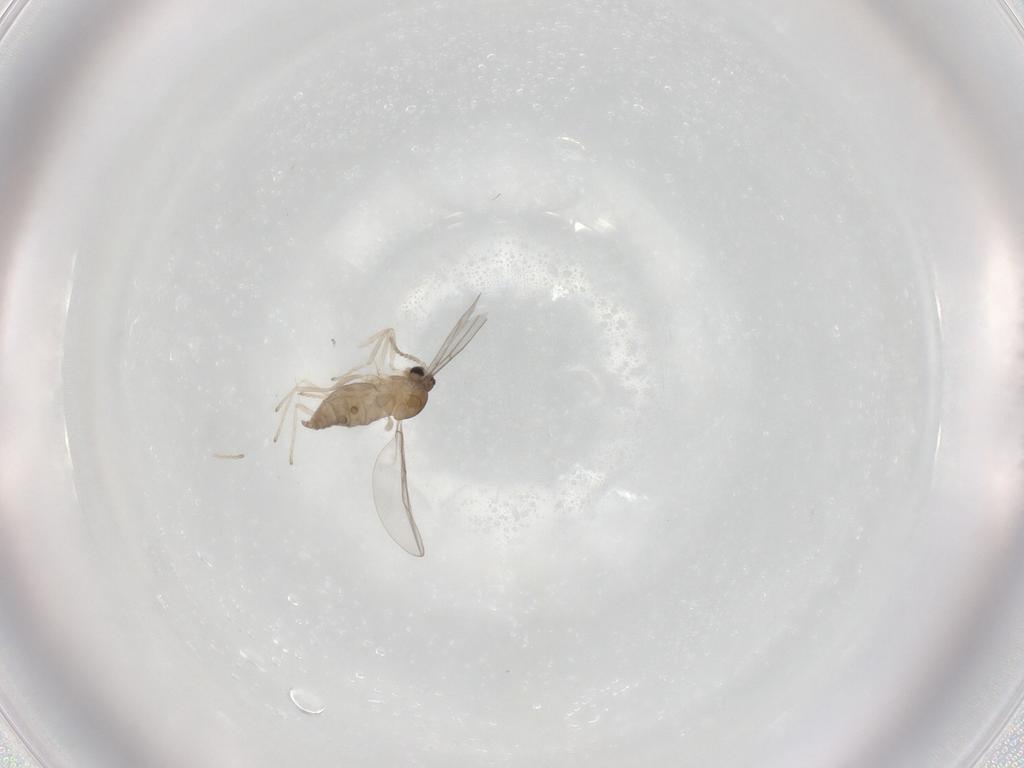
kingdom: Animalia
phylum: Arthropoda
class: Insecta
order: Diptera
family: Cecidomyiidae
